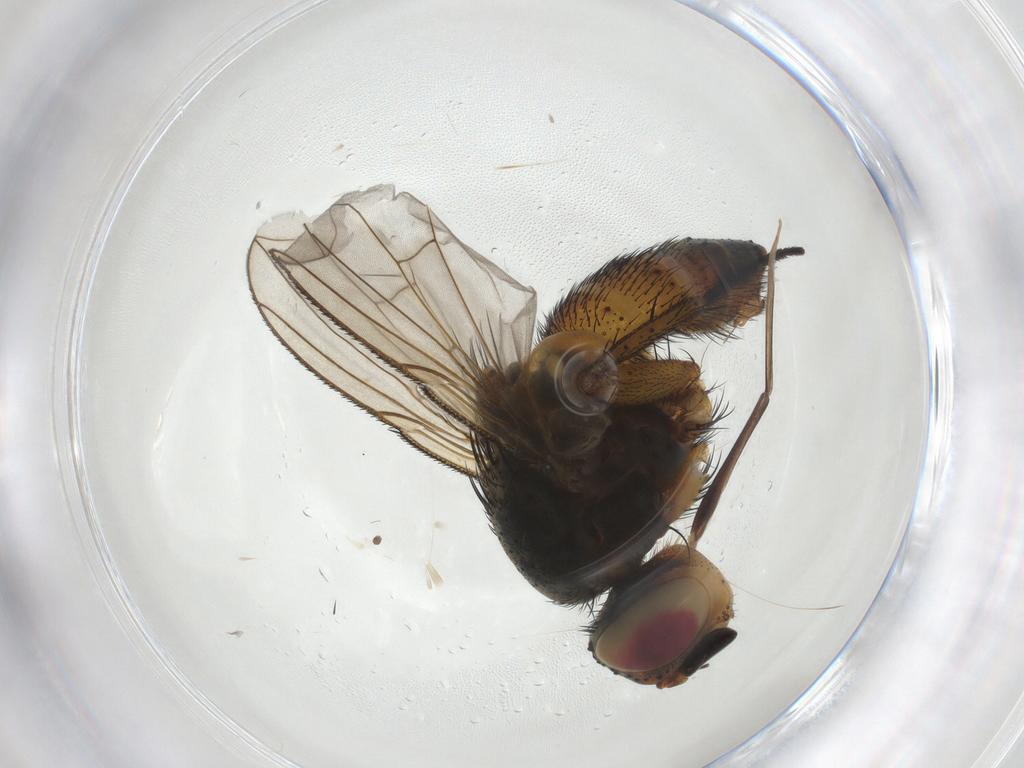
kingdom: Animalia
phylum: Arthropoda
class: Insecta
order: Diptera
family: Tachinidae
